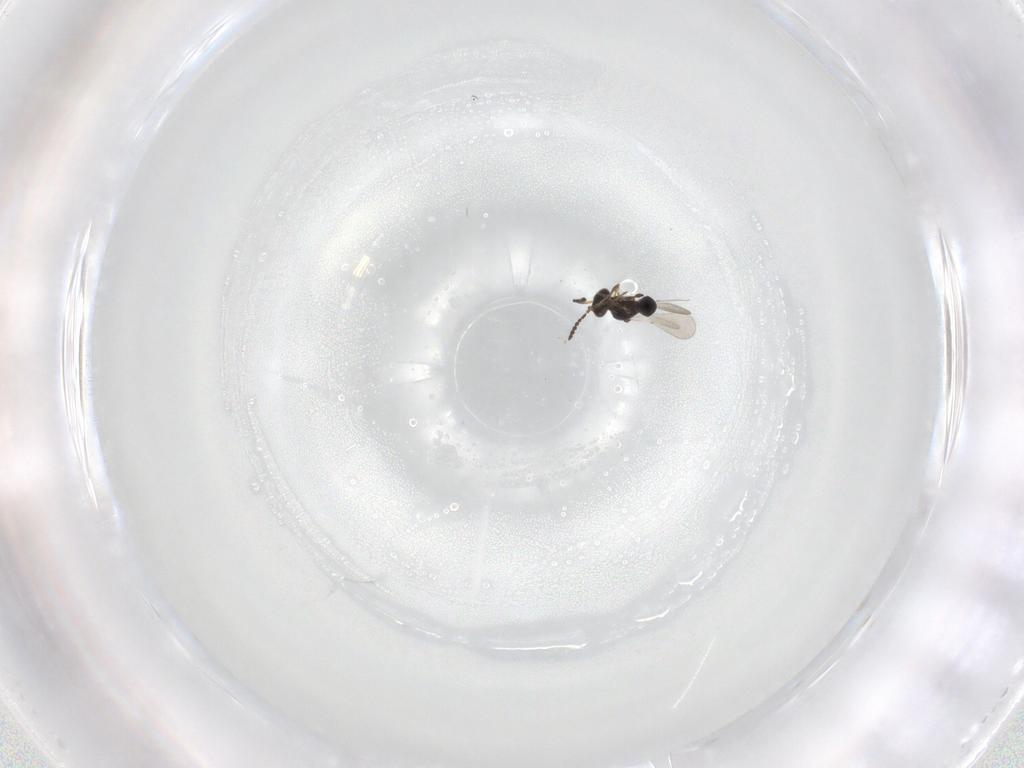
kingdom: Animalia
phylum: Arthropoda
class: Insecta
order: Hymenoptera
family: Platygastridae
